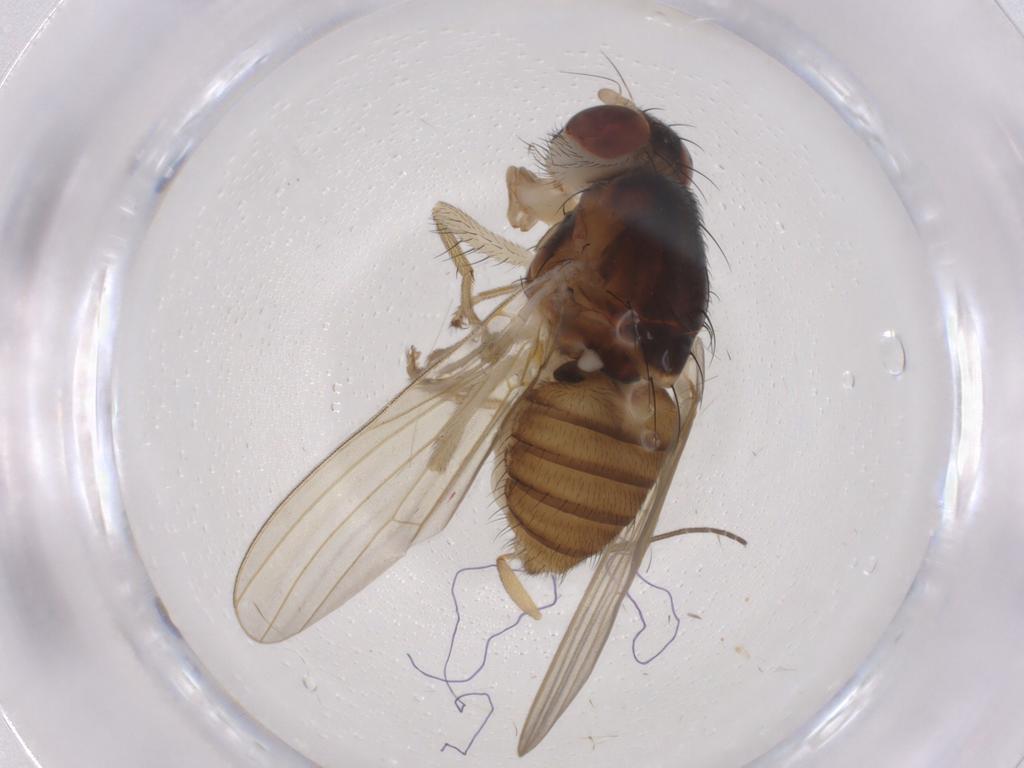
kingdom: Animalia
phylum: Arthropoda
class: Insecta
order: Diptera
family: Lauxaniidae
